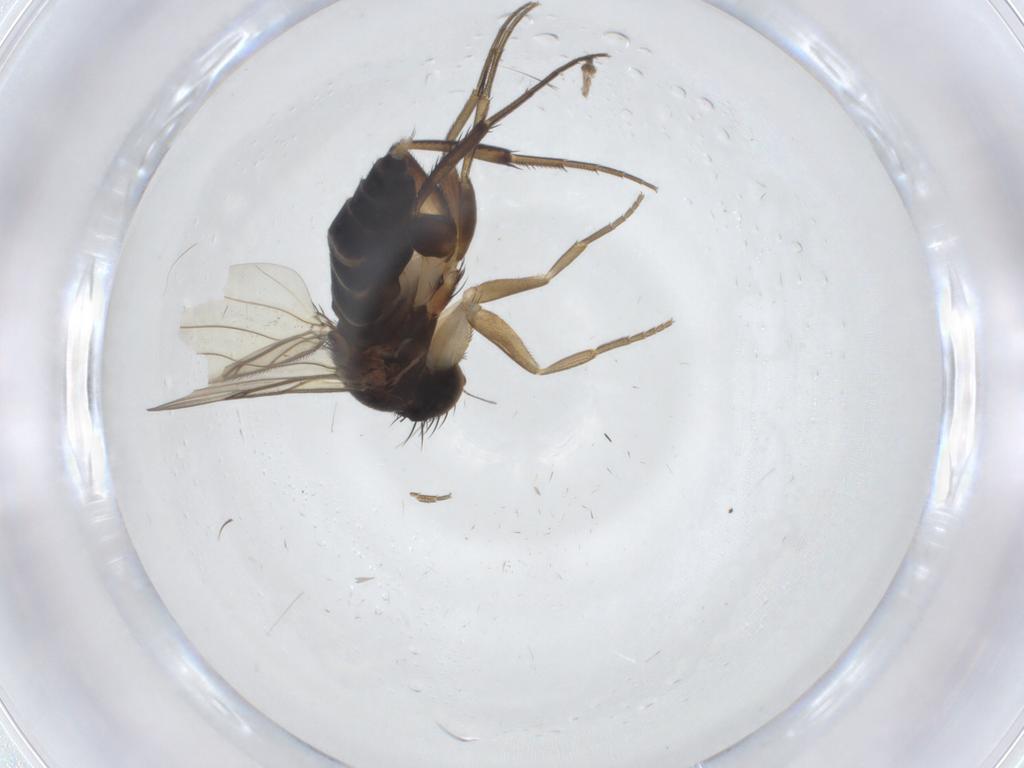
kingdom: Animalia
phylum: Arthropoda
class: Insecta
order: Diptera
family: Phoridae
